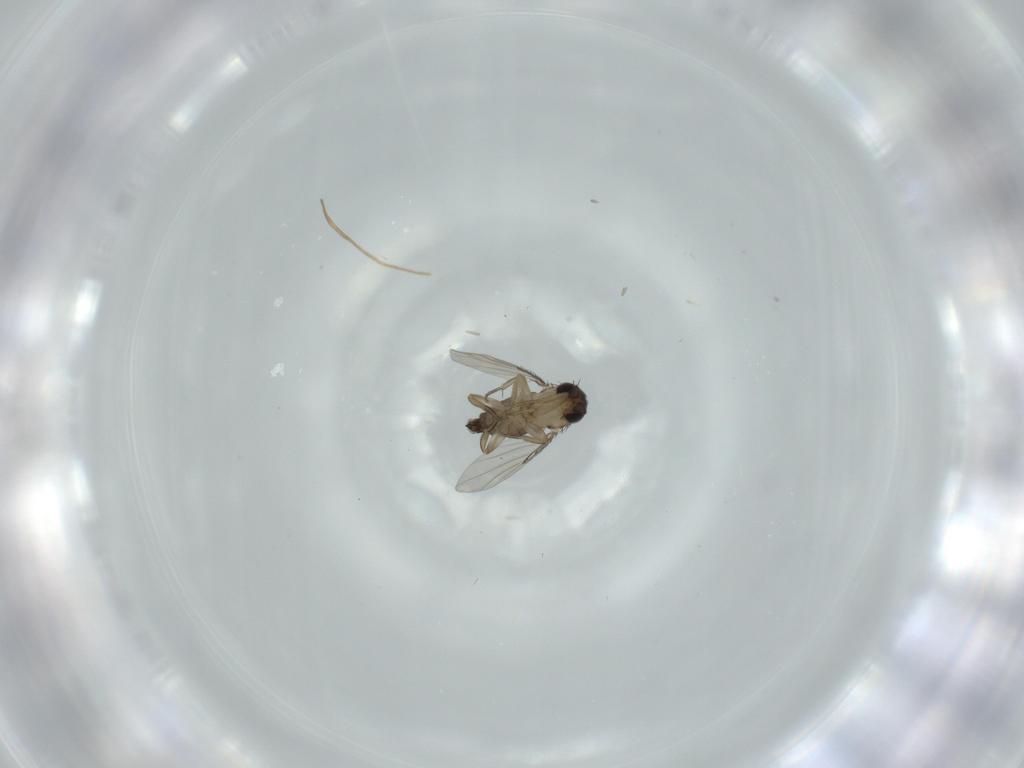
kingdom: Animalia
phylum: Arthropoda
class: Insecta
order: Diptera
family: Phoridae
